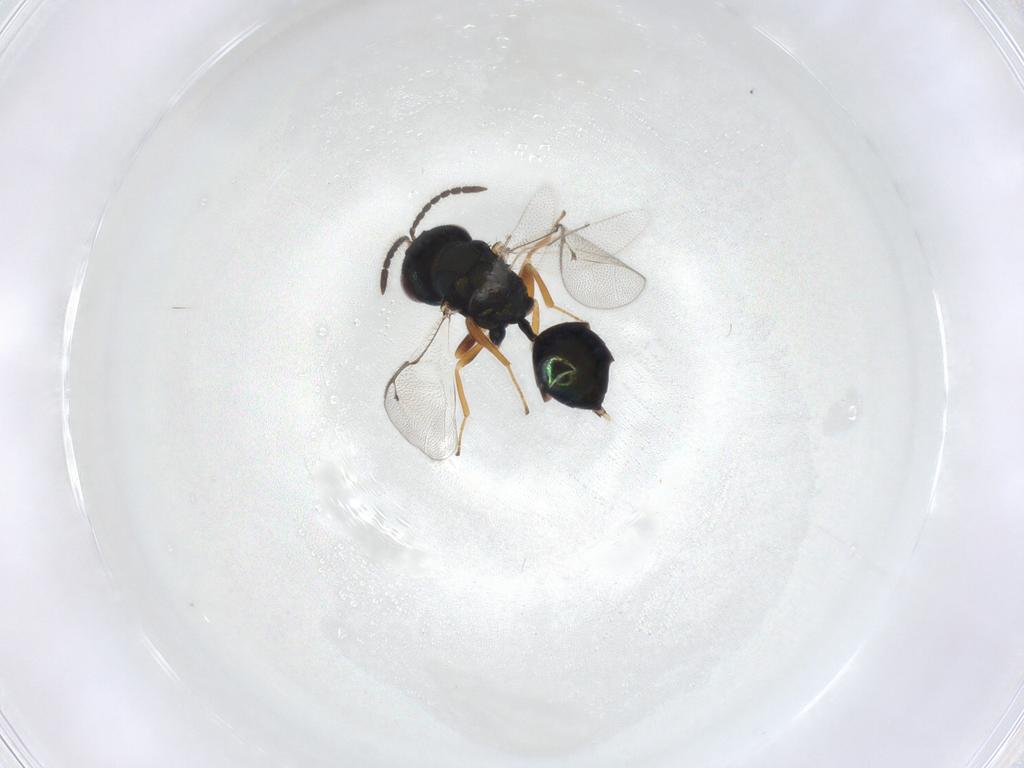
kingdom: Animalia
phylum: Arthropoda
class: Insecta
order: Hymenoptera
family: Pteromalidae
